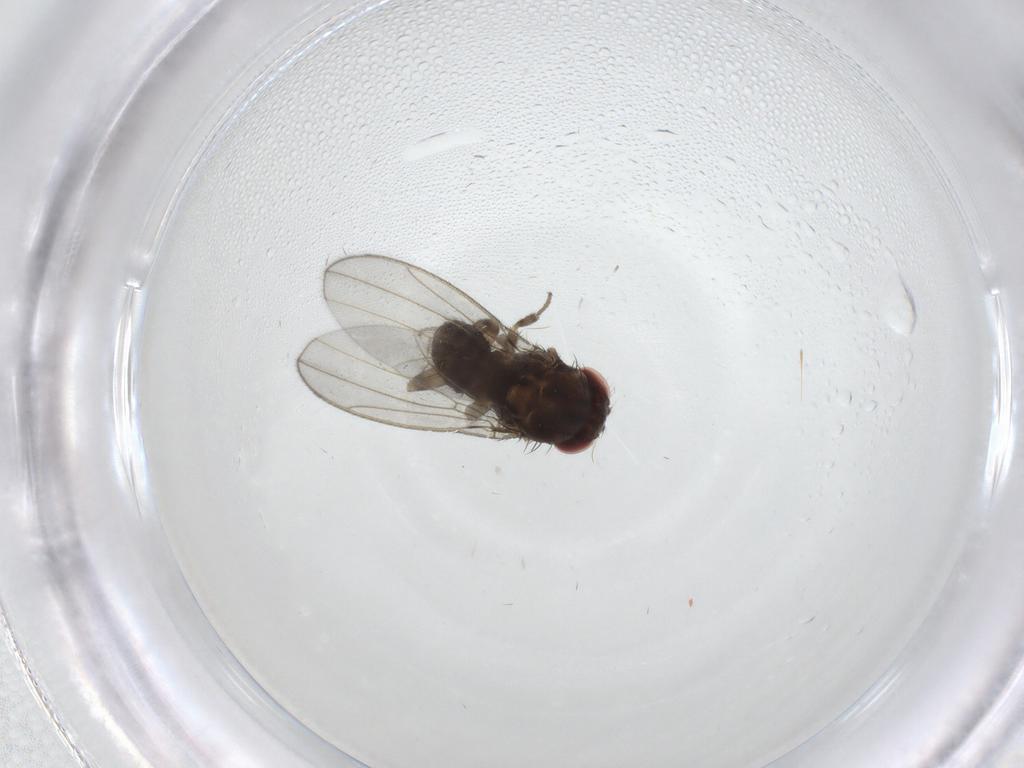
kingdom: Animalia
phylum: Arthropoda
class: Insecta
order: Diptera
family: Drosophilidae
